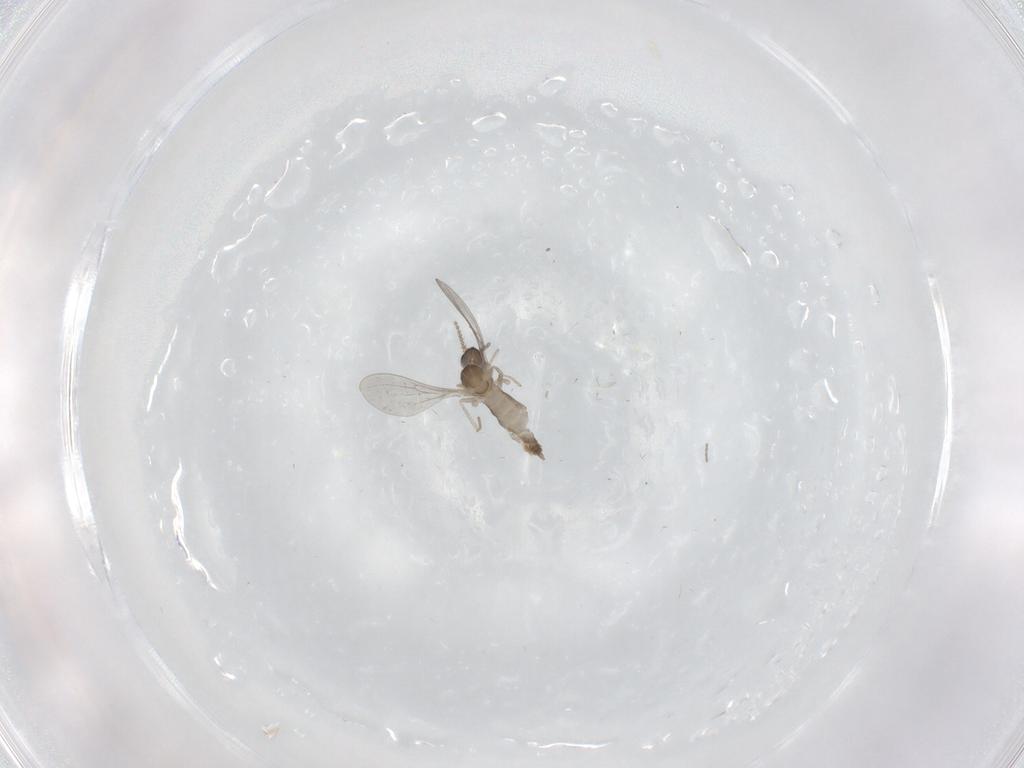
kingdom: Animalia
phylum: Arthropoda
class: Insecta
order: Diptera
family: Cecidomyiidae
